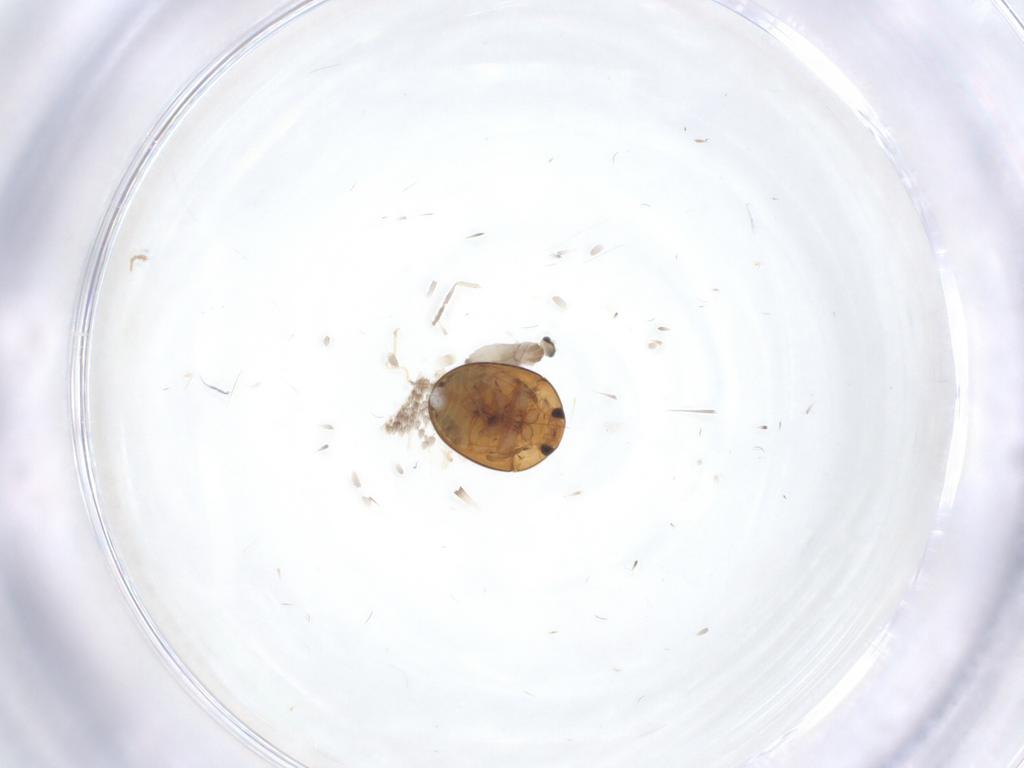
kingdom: Animalia
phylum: Arthropoda
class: Insecta
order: Coleoptera
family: Phalacridae
